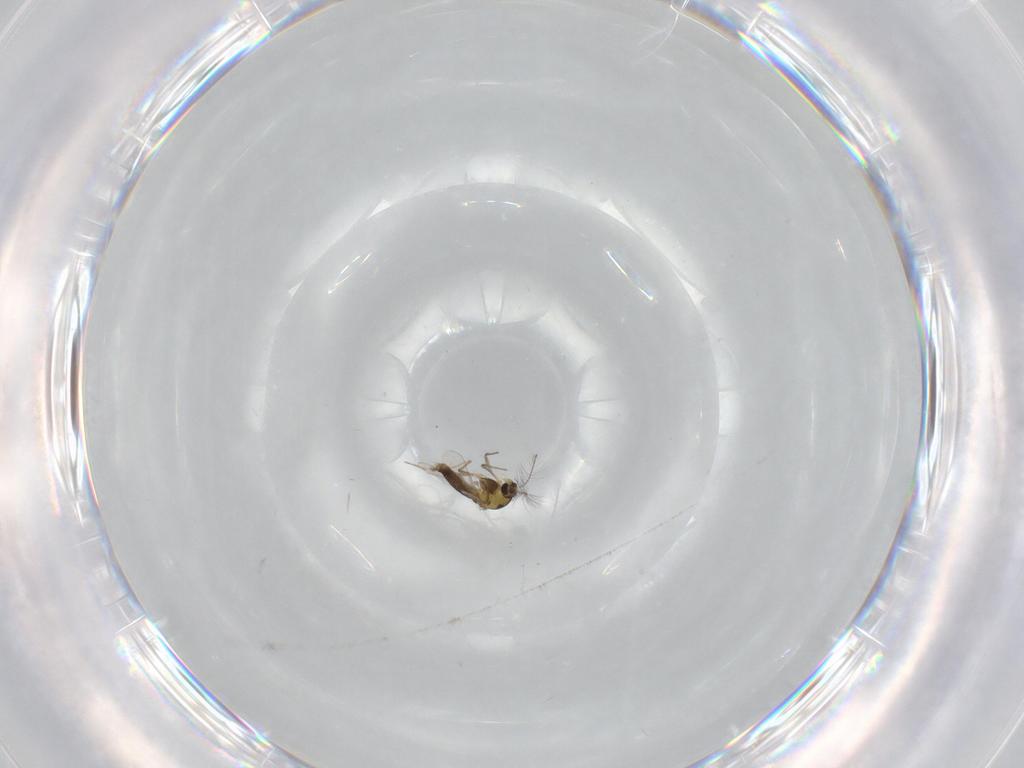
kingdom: Animalia
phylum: Arthropoda
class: Insecta
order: Diptera
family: Chironomidae
